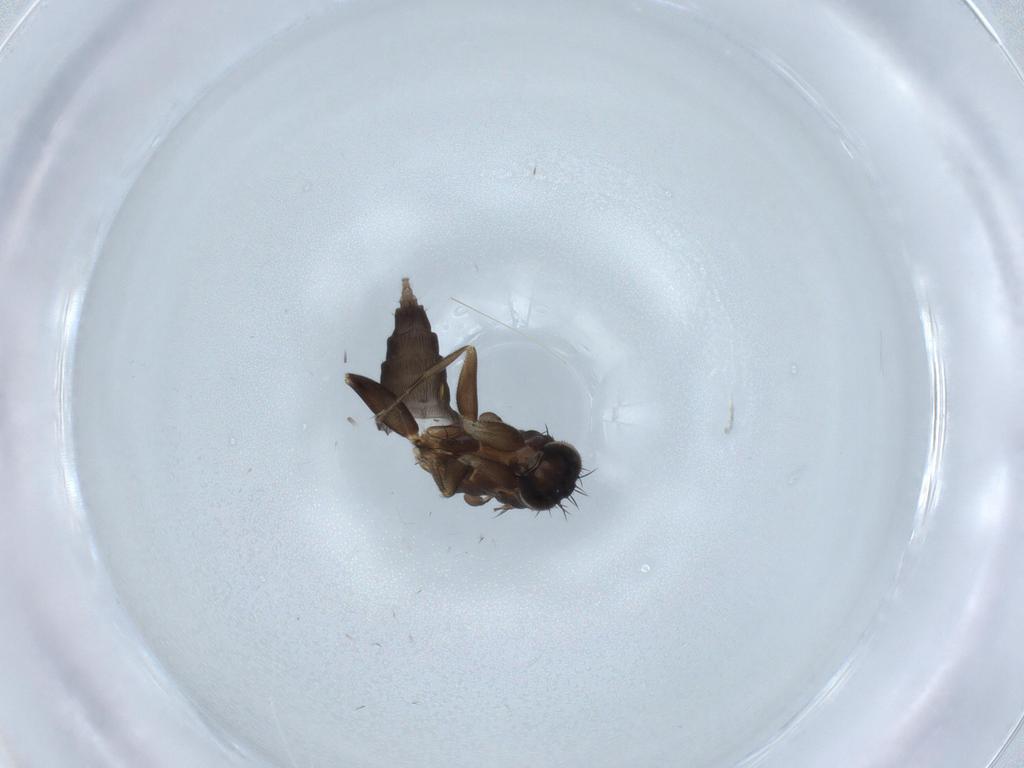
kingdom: Animalia
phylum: Arthropoda
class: Insecta
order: Diptera
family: Phoridae
